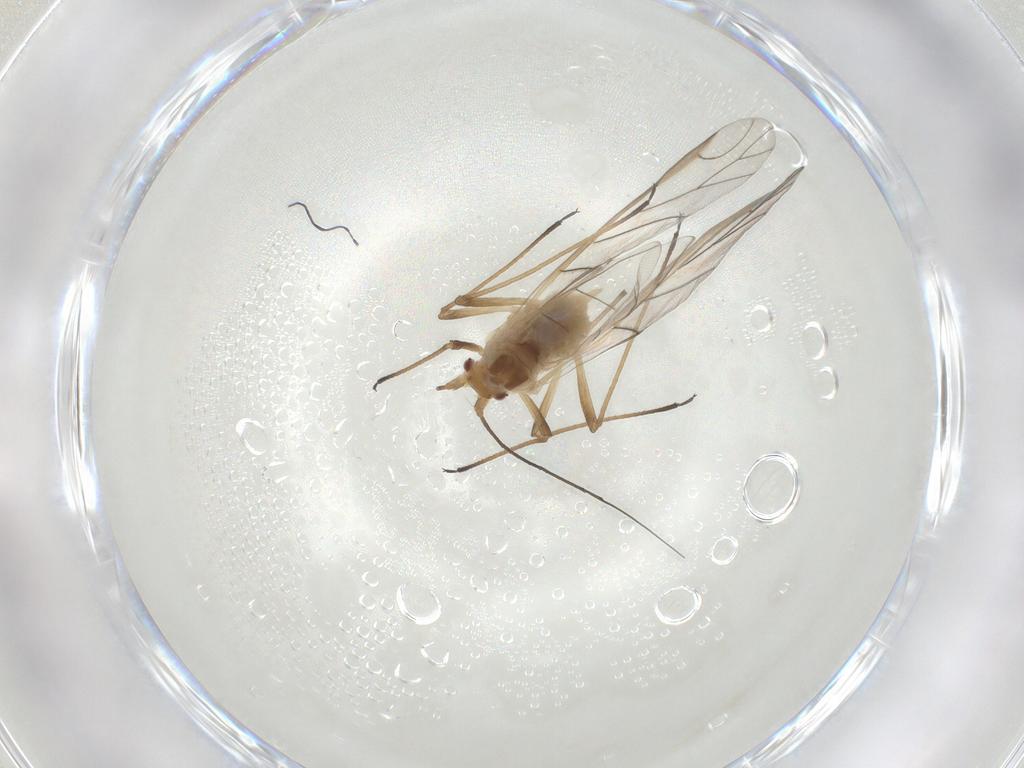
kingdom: Animalia
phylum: Arthropoda
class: Insecta
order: Hemiptera
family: Aphididae
